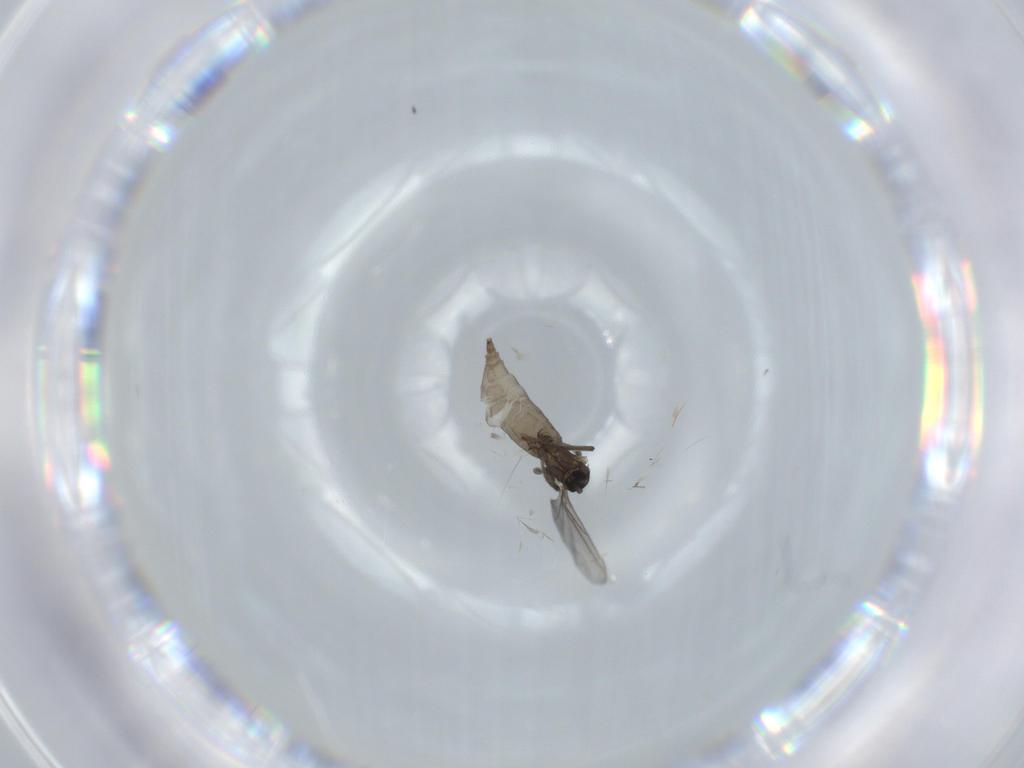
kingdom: Animalia
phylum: Arthropoda
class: Insecta
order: Diptera
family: Sciaridae
